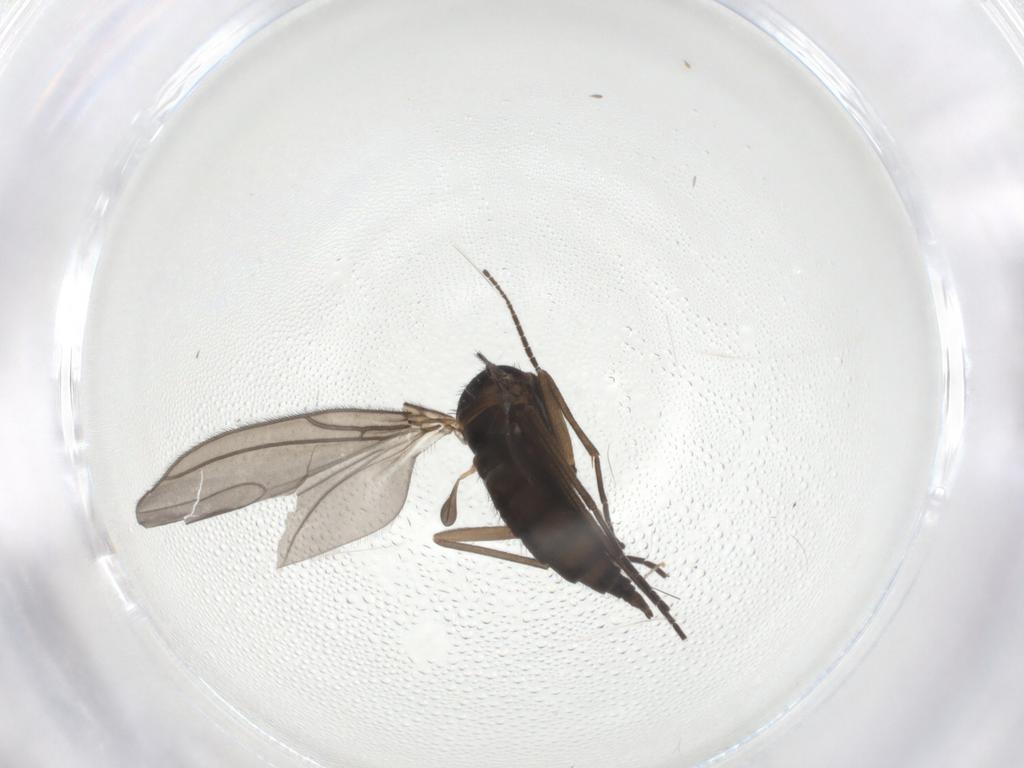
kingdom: Animalia
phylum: Arthropoda
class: Insecta
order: Diptera
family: Sciaridae
